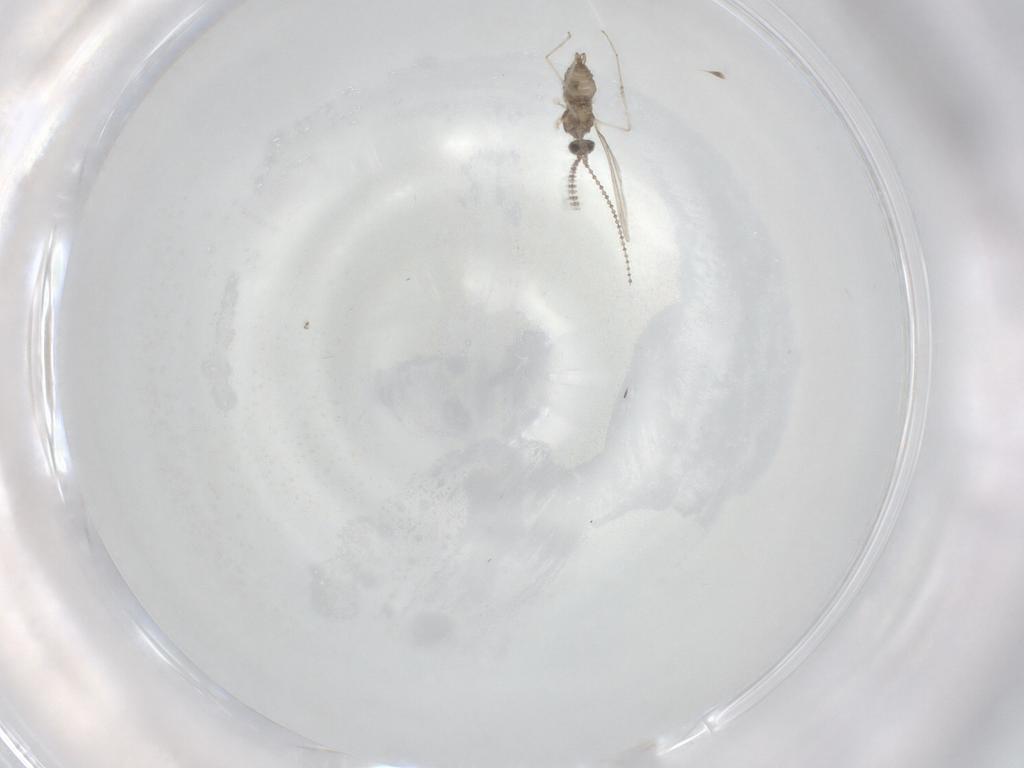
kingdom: Animalia
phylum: Arthropoda
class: Insecta
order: Diptera
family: Cecidomyiidae
